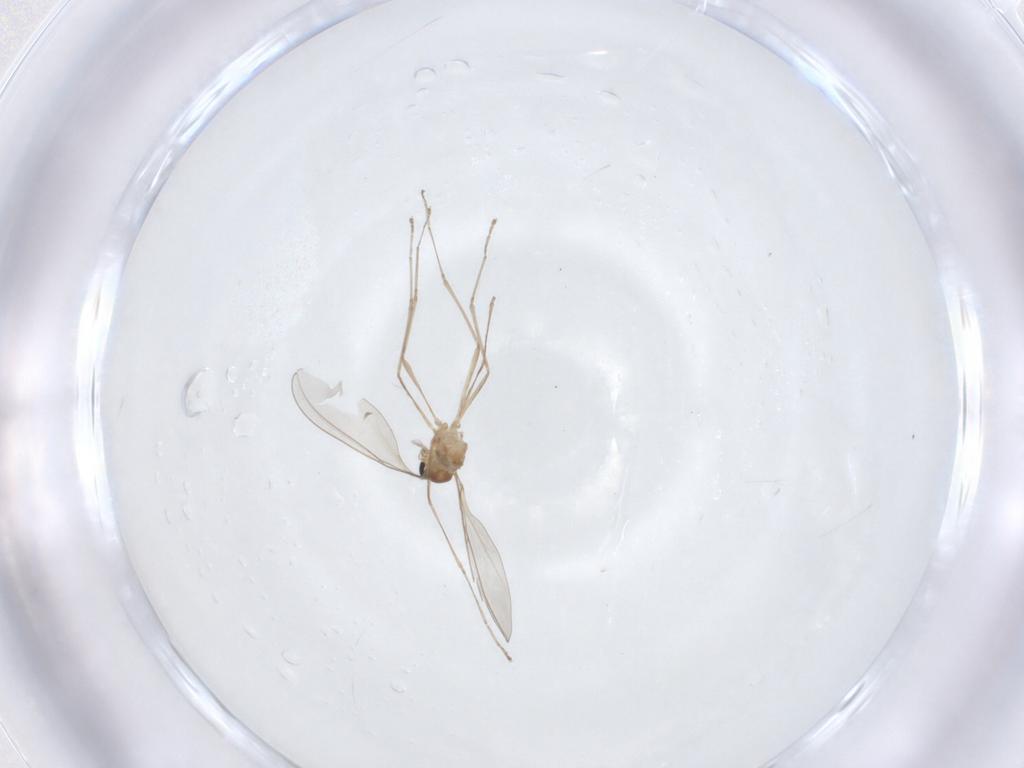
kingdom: Animalia
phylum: Arthropoda
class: Insecta
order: Diptera
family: Cecidomyiidae
